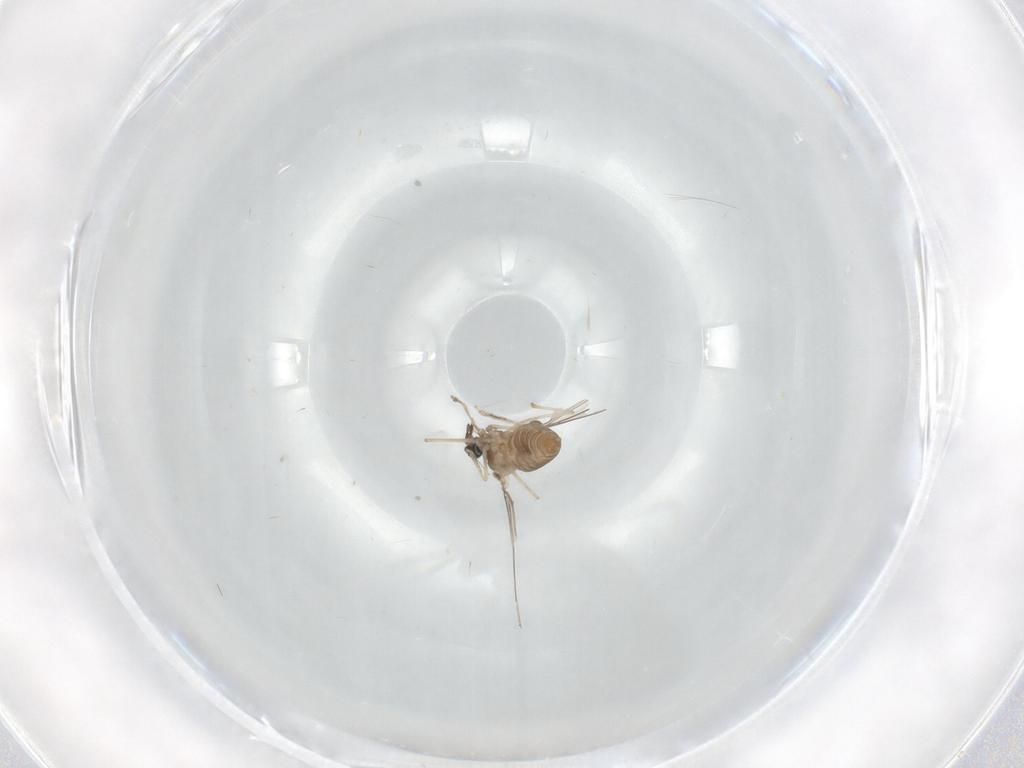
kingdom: Animalia
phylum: Arthropoda
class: Insecta
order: Diptera
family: Cecidomyiidae
